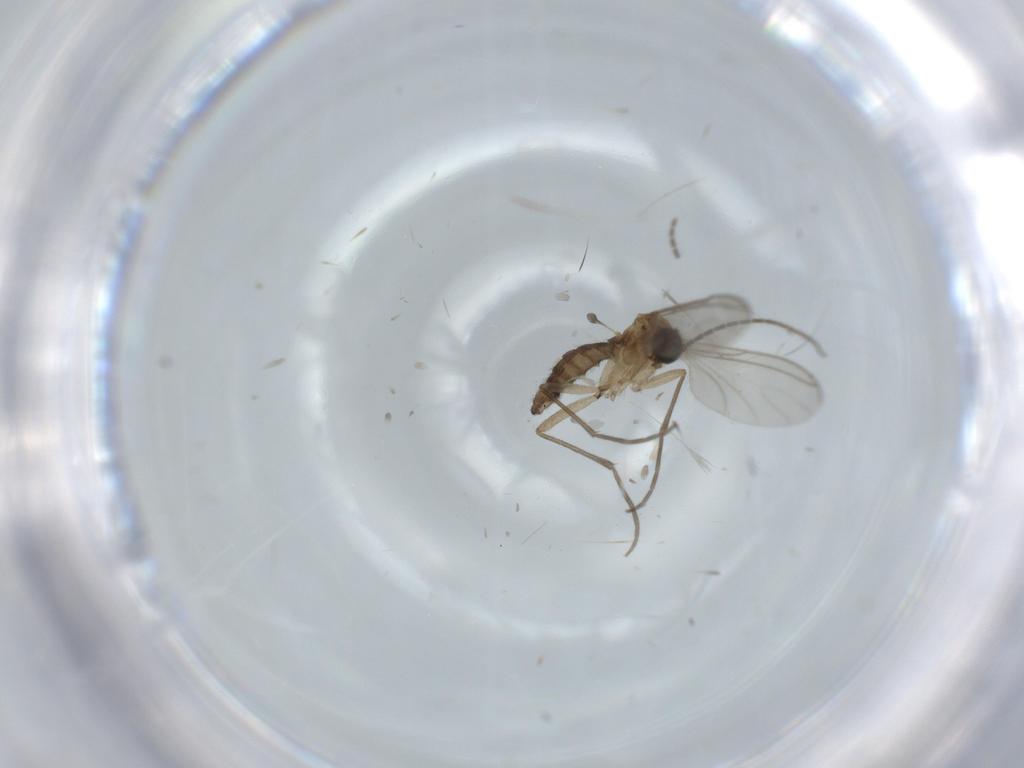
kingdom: Animalia
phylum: Arthropoda
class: Insecta
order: Diptera
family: Sciaridae
